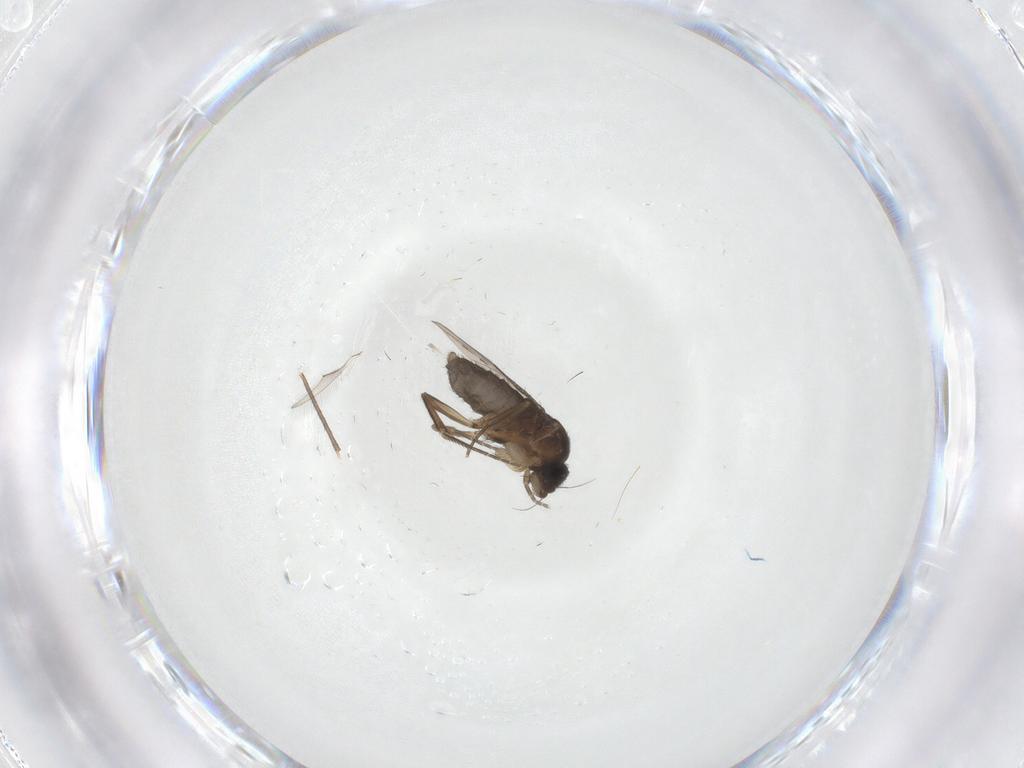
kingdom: Animalia
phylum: Arthropoda
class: Insecta
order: Diptera
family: Phoridae
